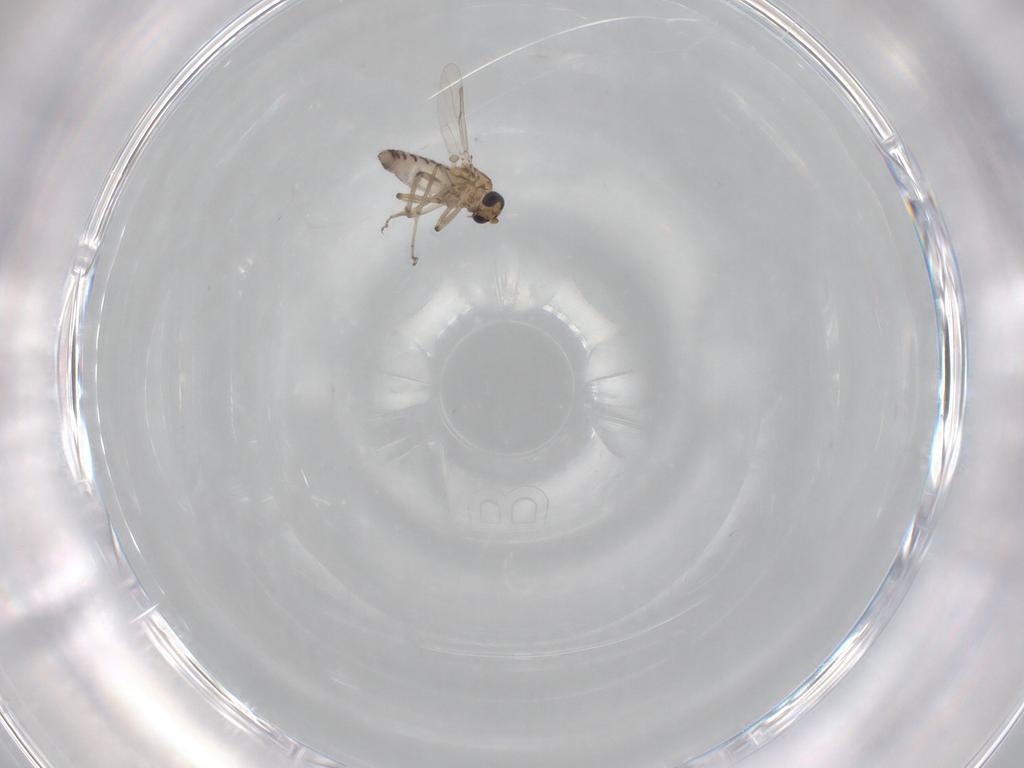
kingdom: Animalia
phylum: Arthropoda
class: Insecta
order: Diptera
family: Ceratopogonidae
